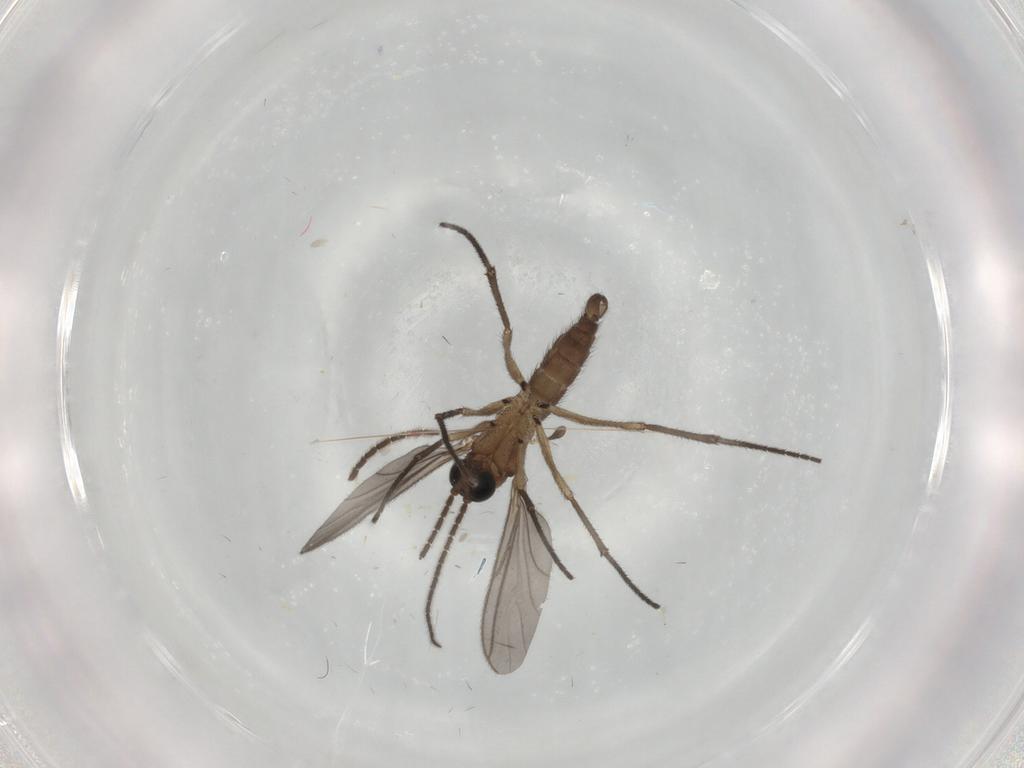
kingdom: Animalia
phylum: Arthropoda
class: Insecta
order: Diptera
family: Sciaridae
